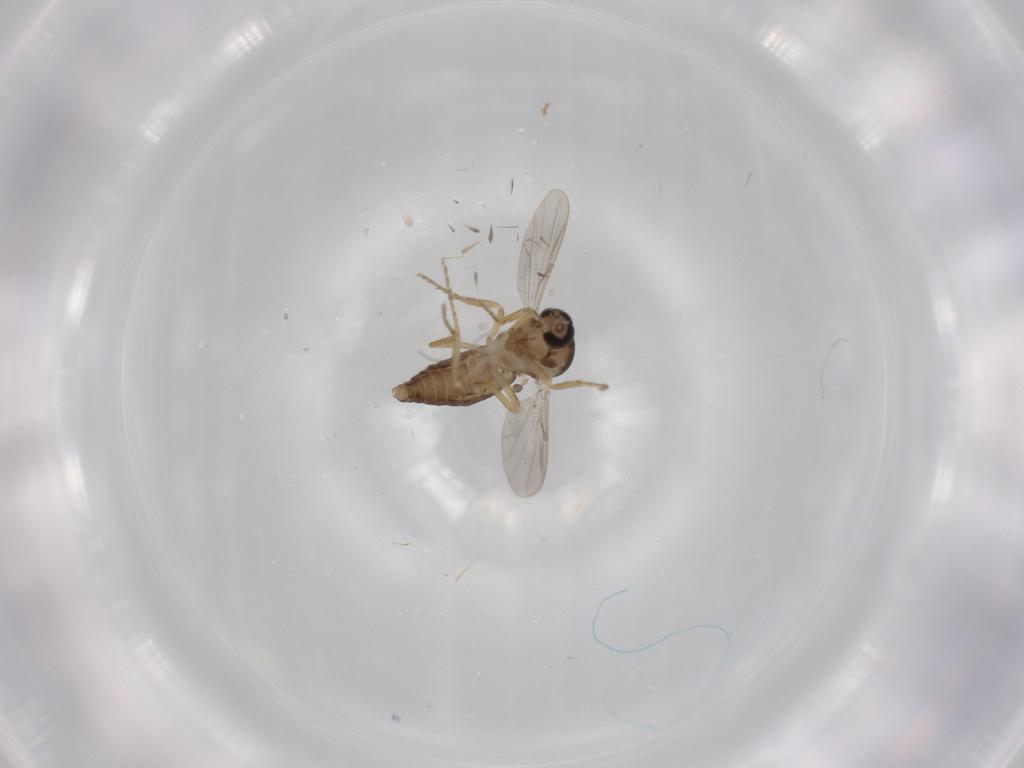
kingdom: Animalia
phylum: Arthropoda
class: Insecta
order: Diptera
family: Ceratopogonidae
